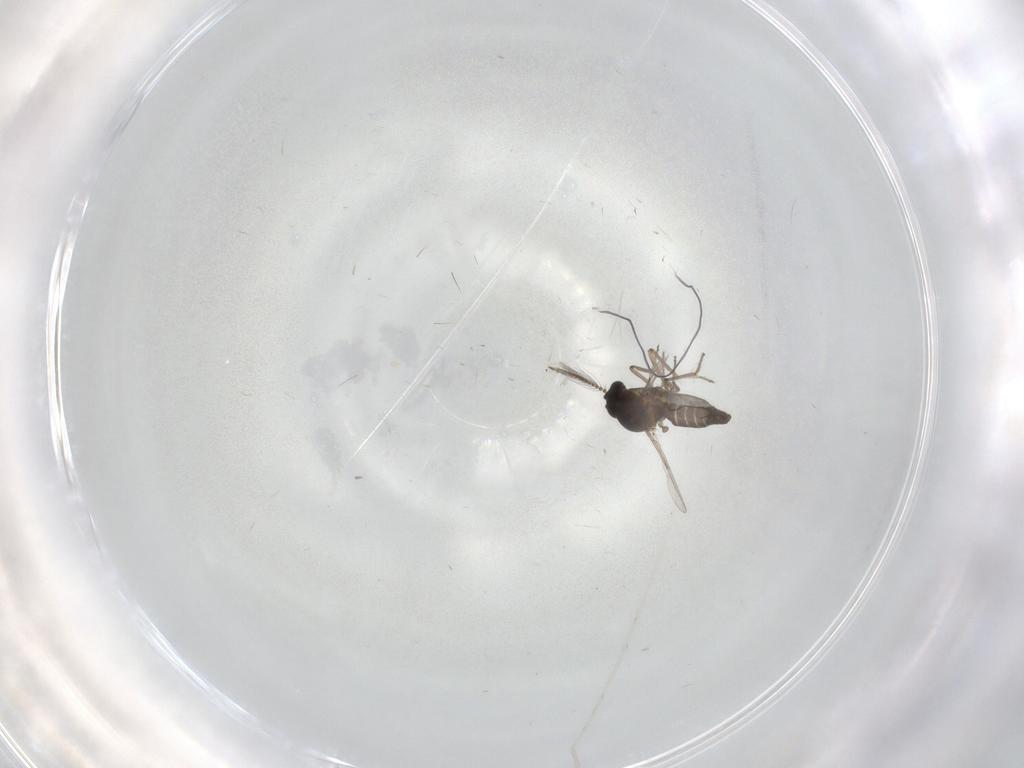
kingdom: Animalia
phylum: Arthropoda
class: Insecta
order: Diptera
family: Ceratopogonidae
